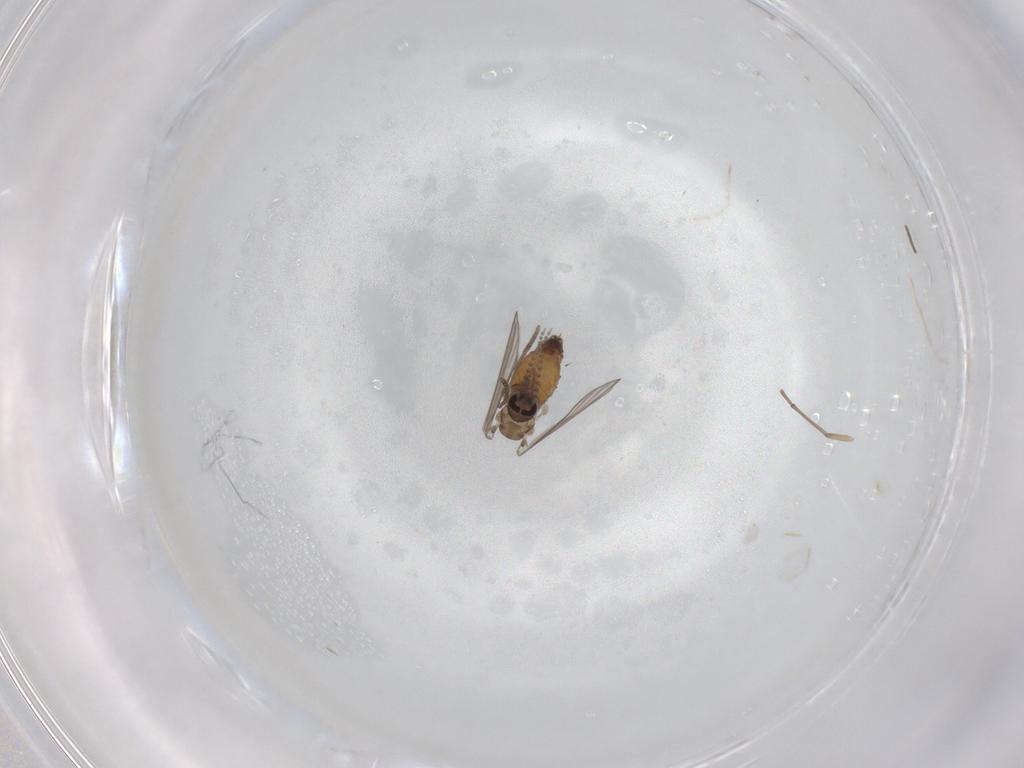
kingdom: Animalia
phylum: Arthropoda
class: Insecta
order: Diptera
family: Psychodidae
